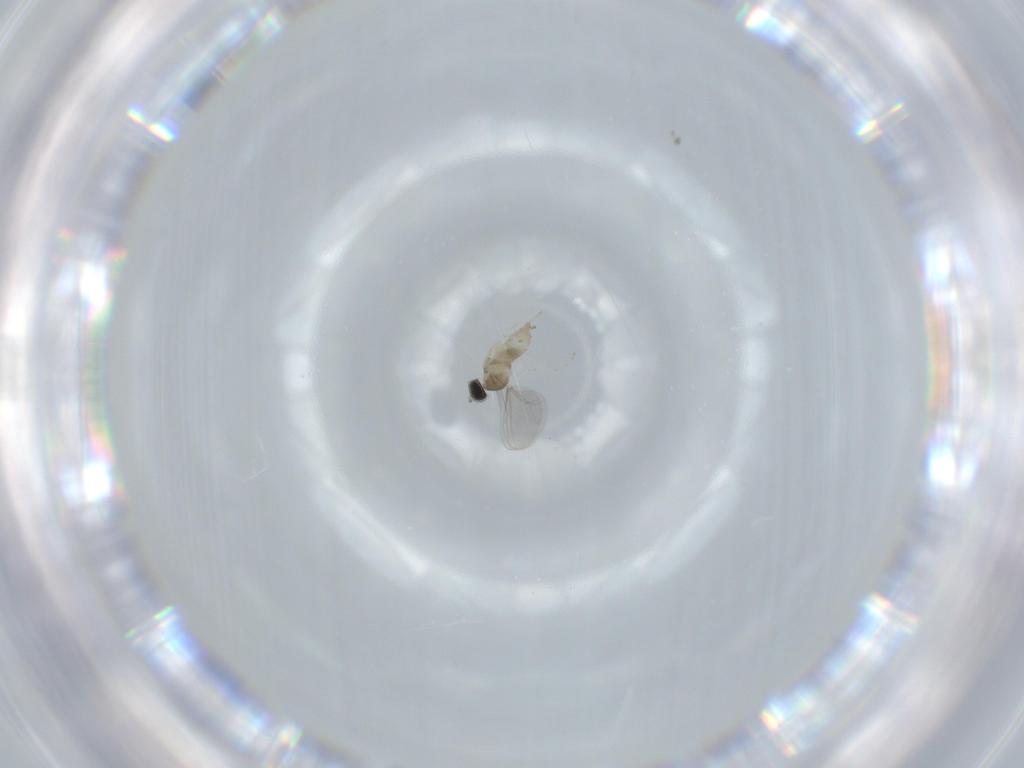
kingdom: Animalia
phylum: Arthropoda
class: Insecta
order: Diptera
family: Cecidomyiidae
